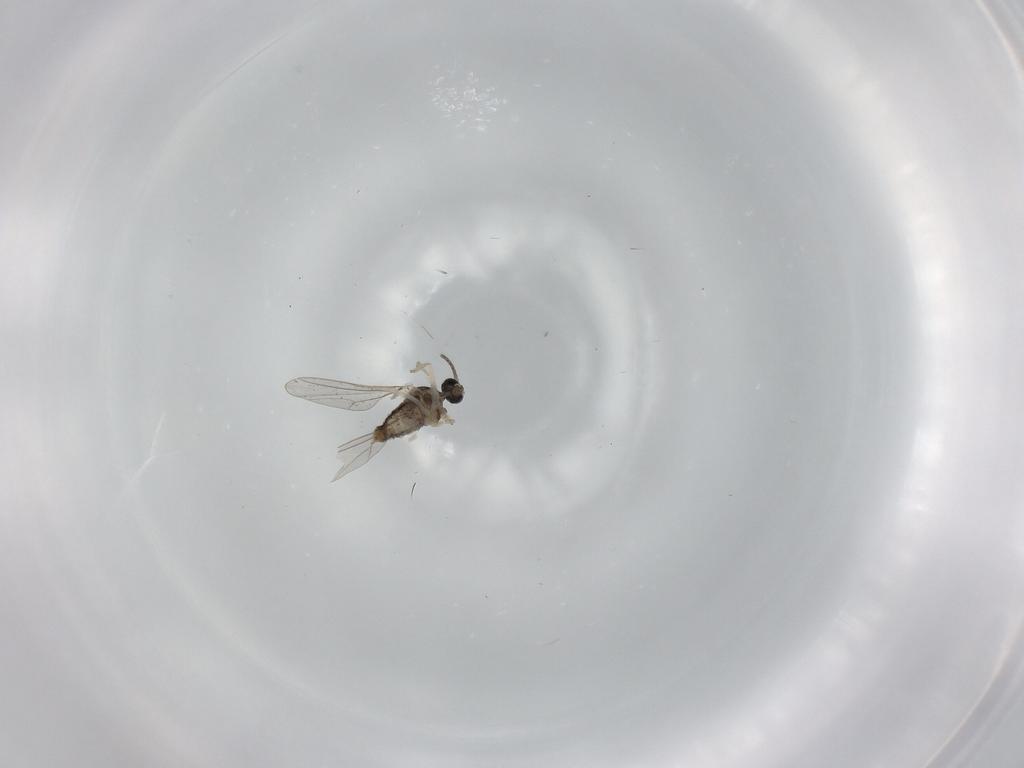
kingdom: Animalia
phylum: Arthropoda
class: Insecta
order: Diptera
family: Cecidomyiidae
